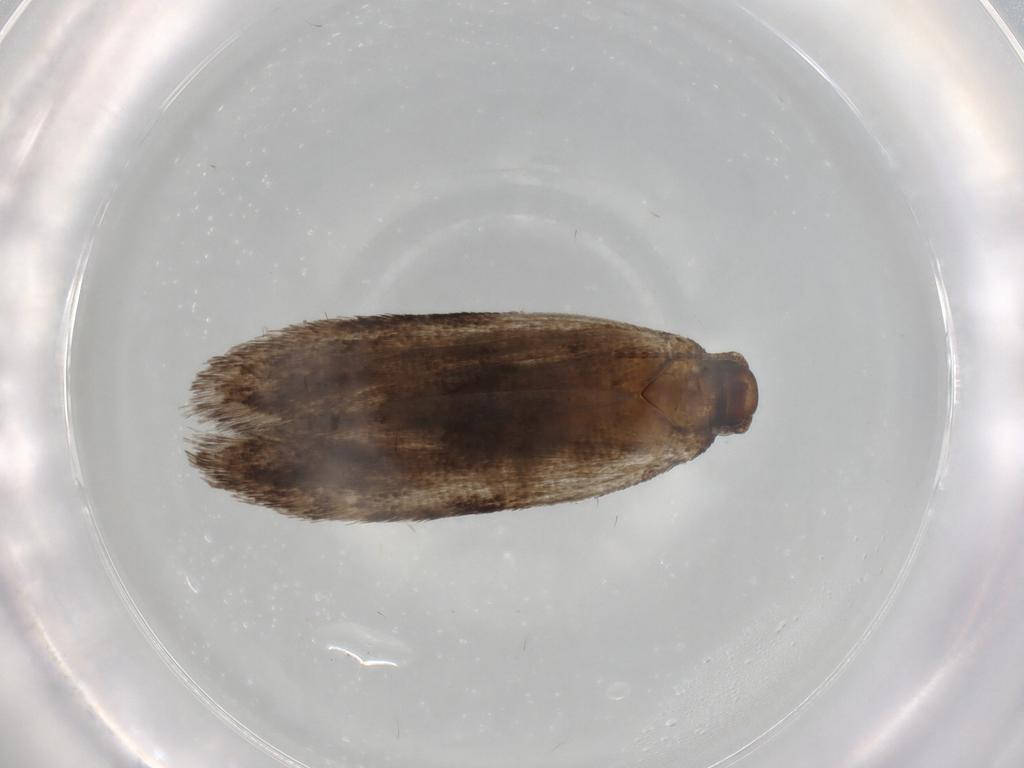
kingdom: Animalia
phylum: Arthropoda
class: Insecta
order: Lepidoptera
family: Gelechiidae
